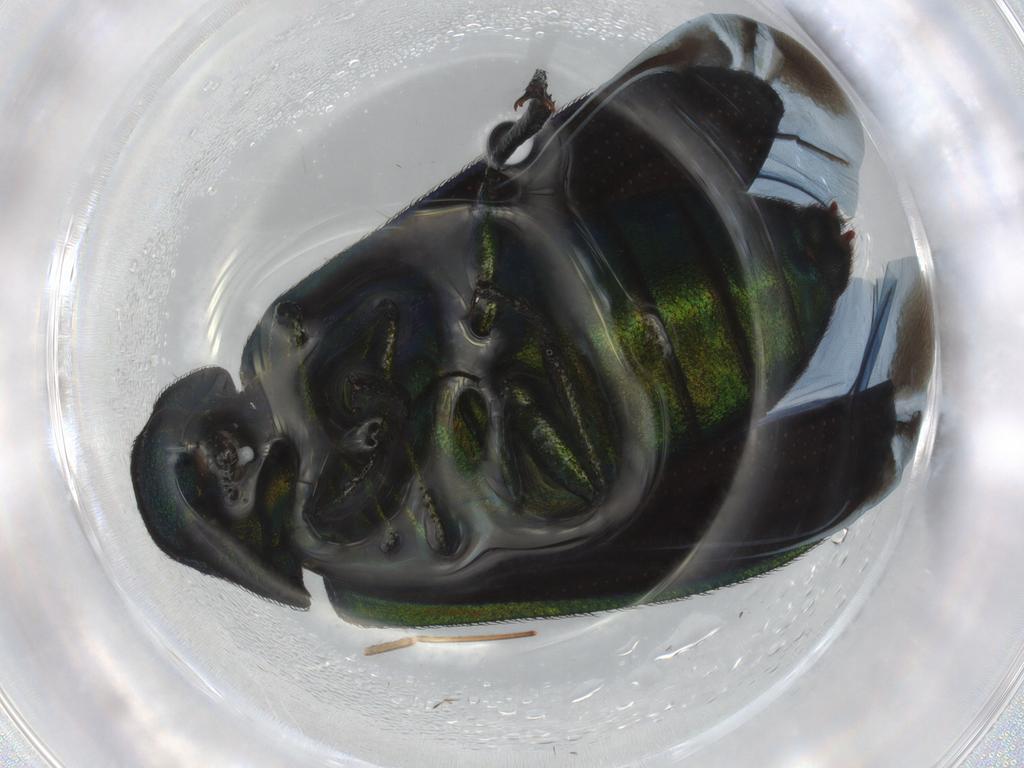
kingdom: Animalia
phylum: Arthropoda
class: Insecta
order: Coleoptera
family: Melyridae
